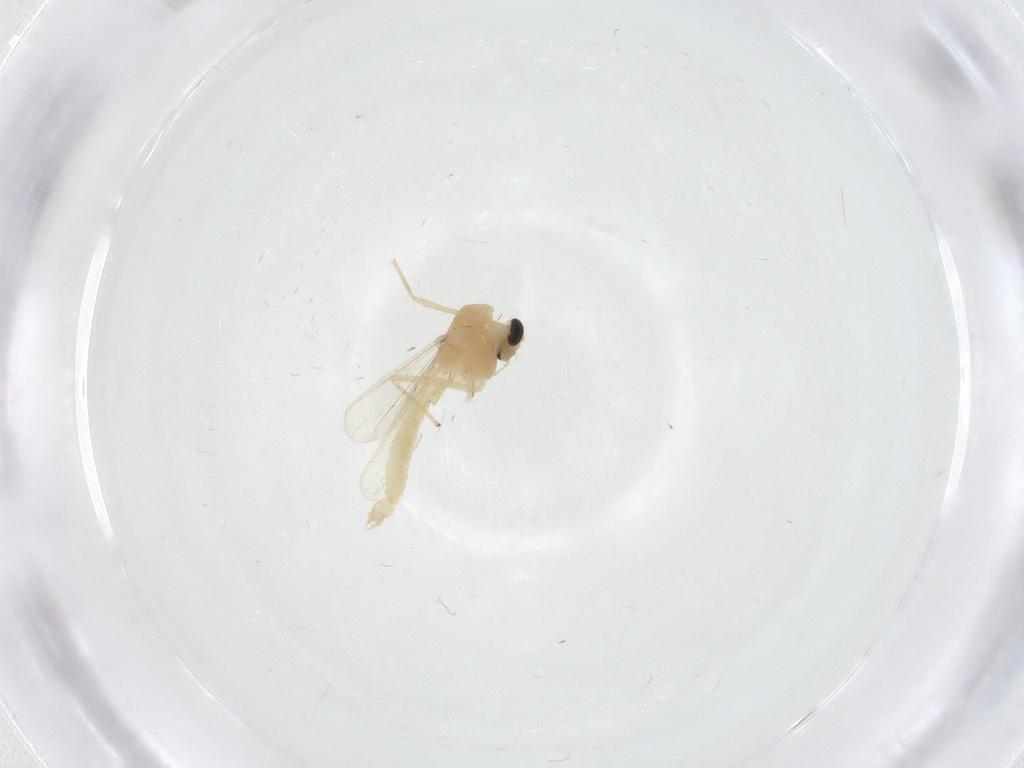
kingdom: Animalia
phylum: Arthropoda
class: Insecta
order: Diptera
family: Chironomidae
